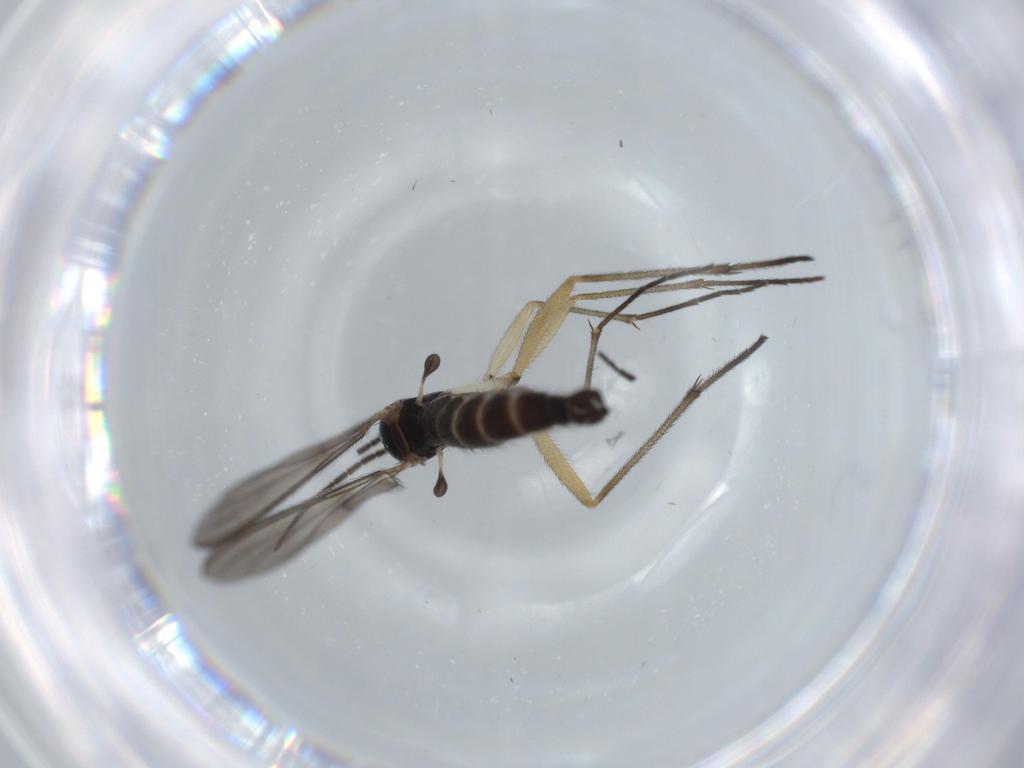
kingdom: Animalia
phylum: Arthropoda
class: Insecta
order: Diptera
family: Sciaridae
